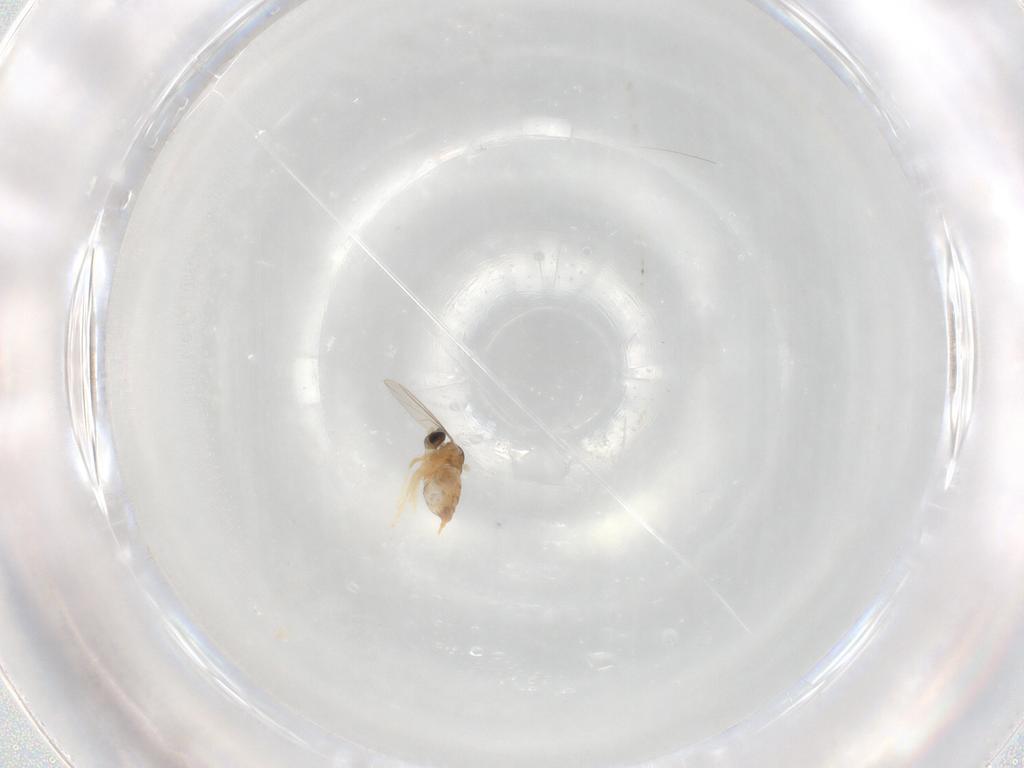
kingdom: Animalia
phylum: Arthropoda
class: Insecta
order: Diptera
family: Cecidomyiidae
